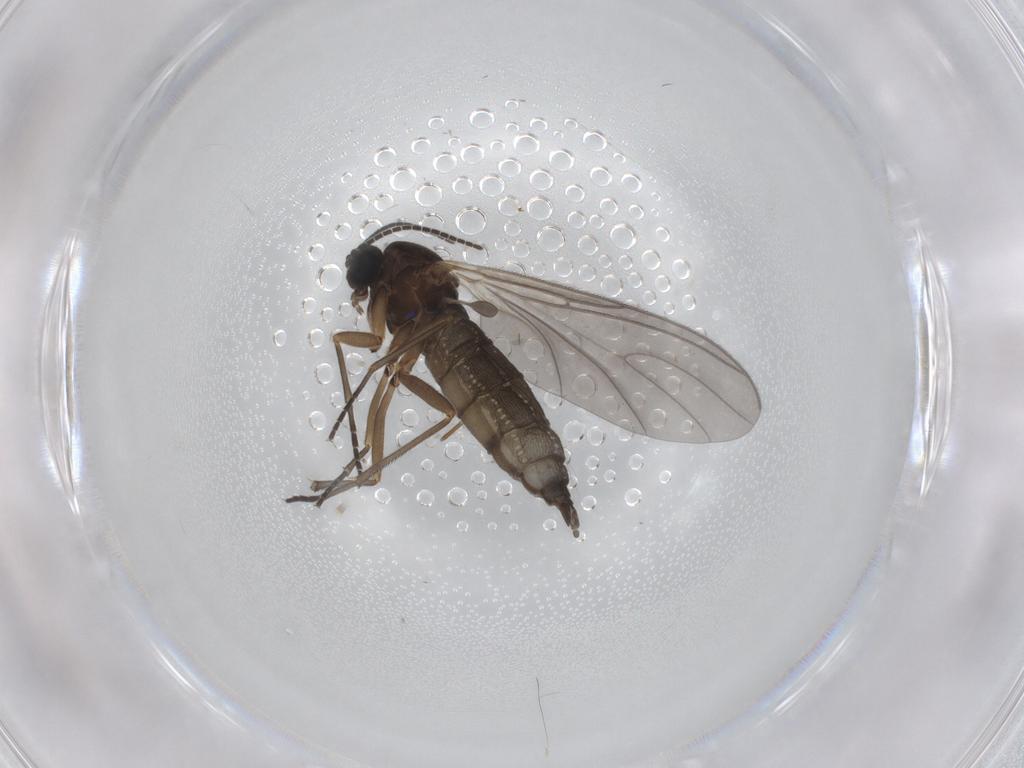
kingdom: Animalia
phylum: Arthropoda
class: Insecta
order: Diptera
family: Sciaridae
